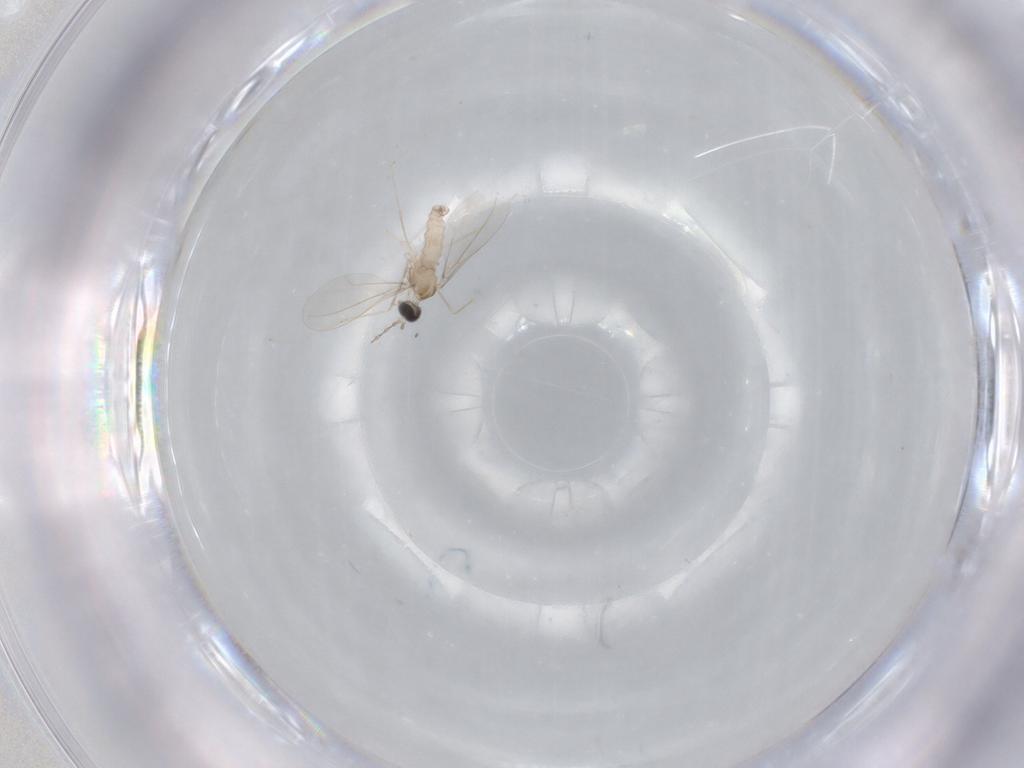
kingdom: Animalia
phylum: Arthropoda
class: Insecta
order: Diptera
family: Cecidomyiidae
